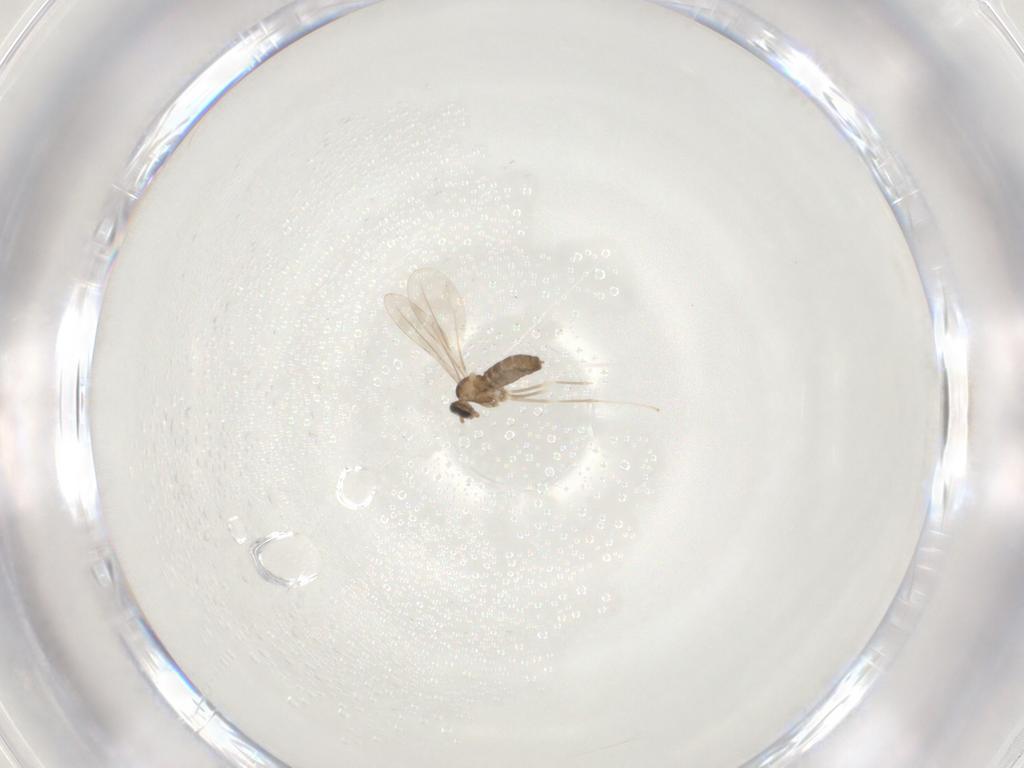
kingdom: Animalia
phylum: Arthropoda
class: Insecta
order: Diptera
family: Cecidomyiidae
